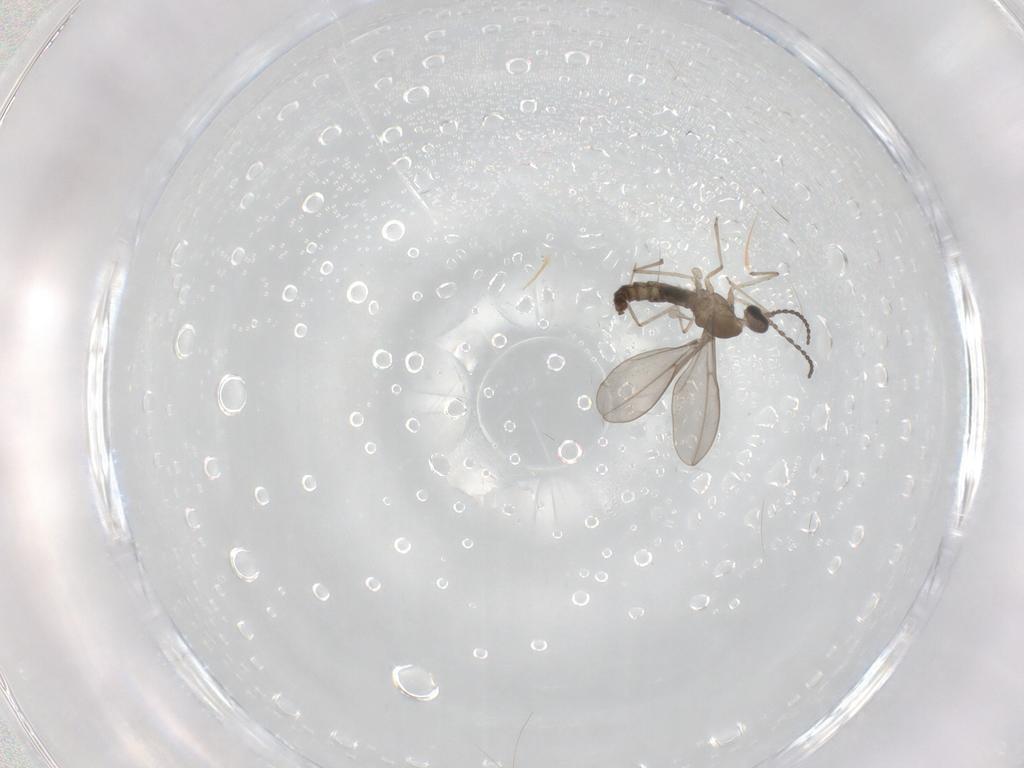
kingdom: Animalia
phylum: Arthropoda
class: Insecta
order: Diptera
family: Cecidomyiidae
